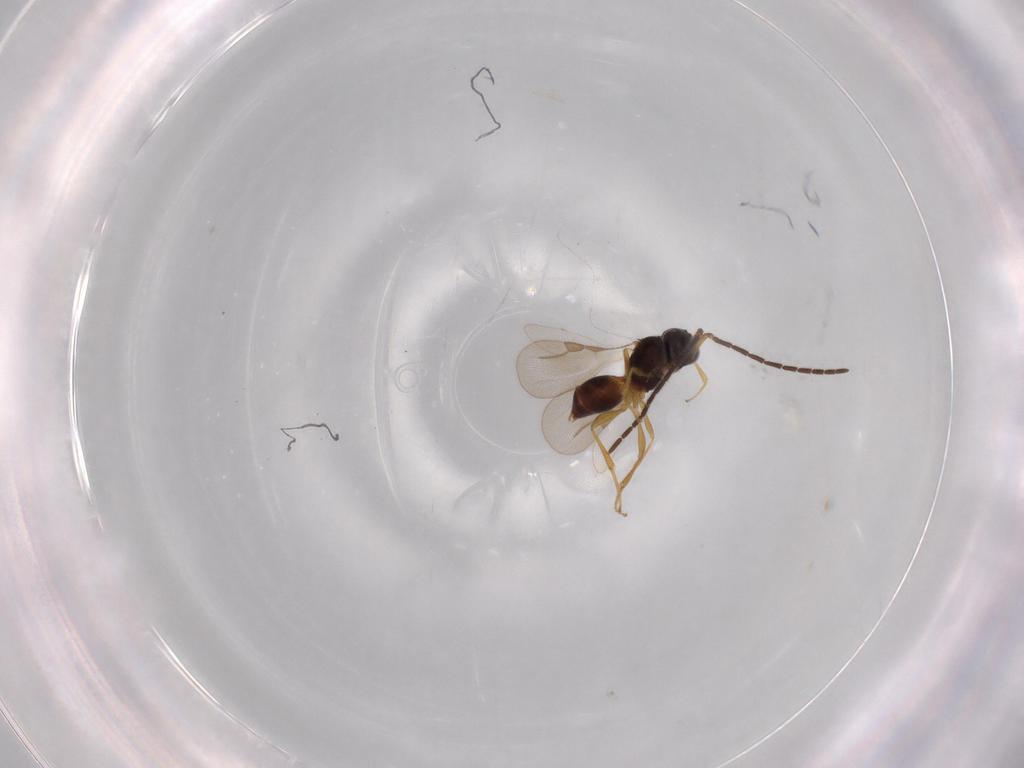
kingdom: Animalia
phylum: Arthropoda
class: Insecta
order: Hymenoptera
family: Megaspilidae
